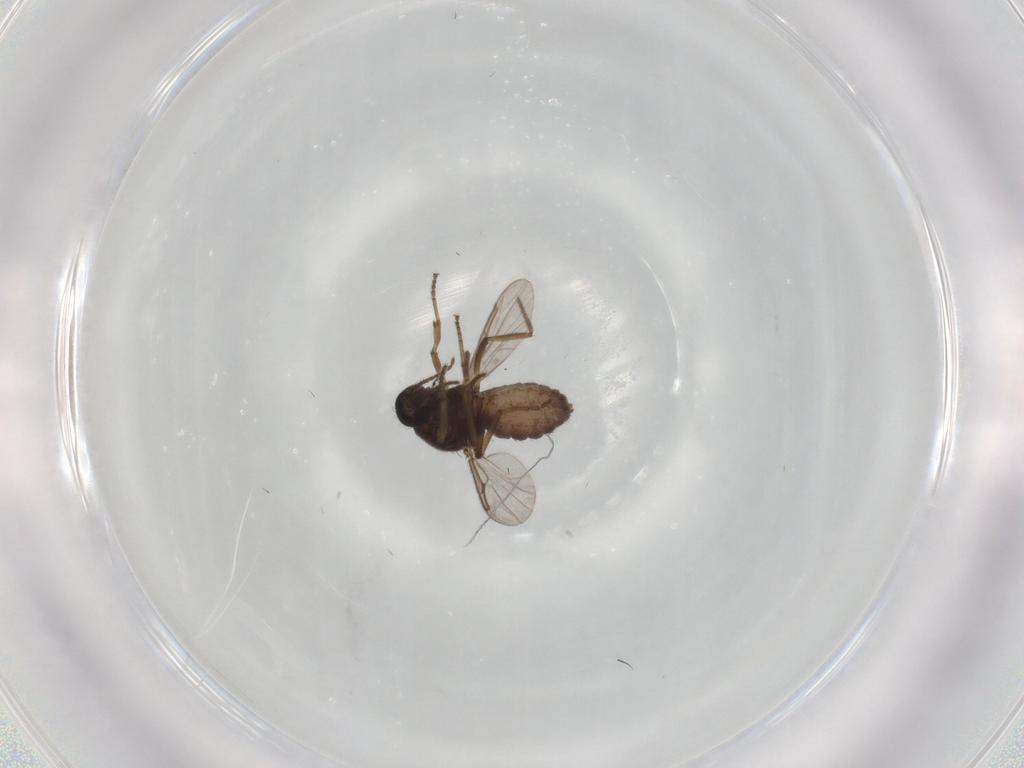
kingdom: Animalia
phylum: Arthropoda
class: Insecta
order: Diptera
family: Ceratopogonidae
